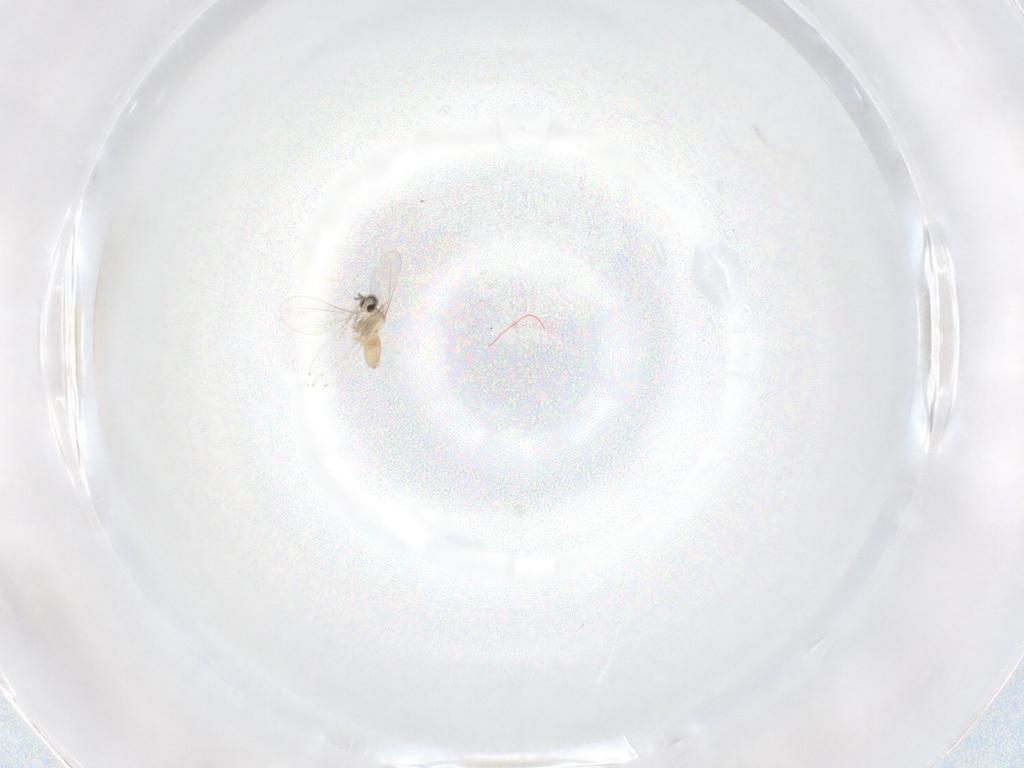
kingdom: Animalia
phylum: Arthropoda
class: Insecta
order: Diptera
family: Cecidomyiidae
